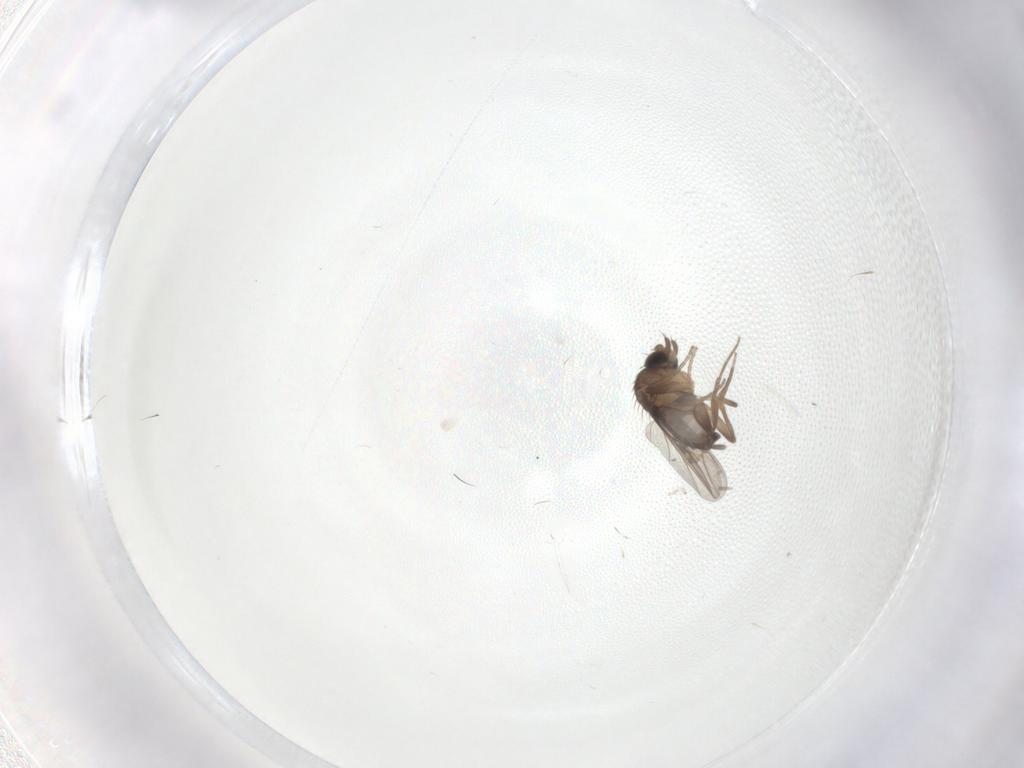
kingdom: Animalia
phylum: Arthropoda
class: Insecta
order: Diptera
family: Phoridae
